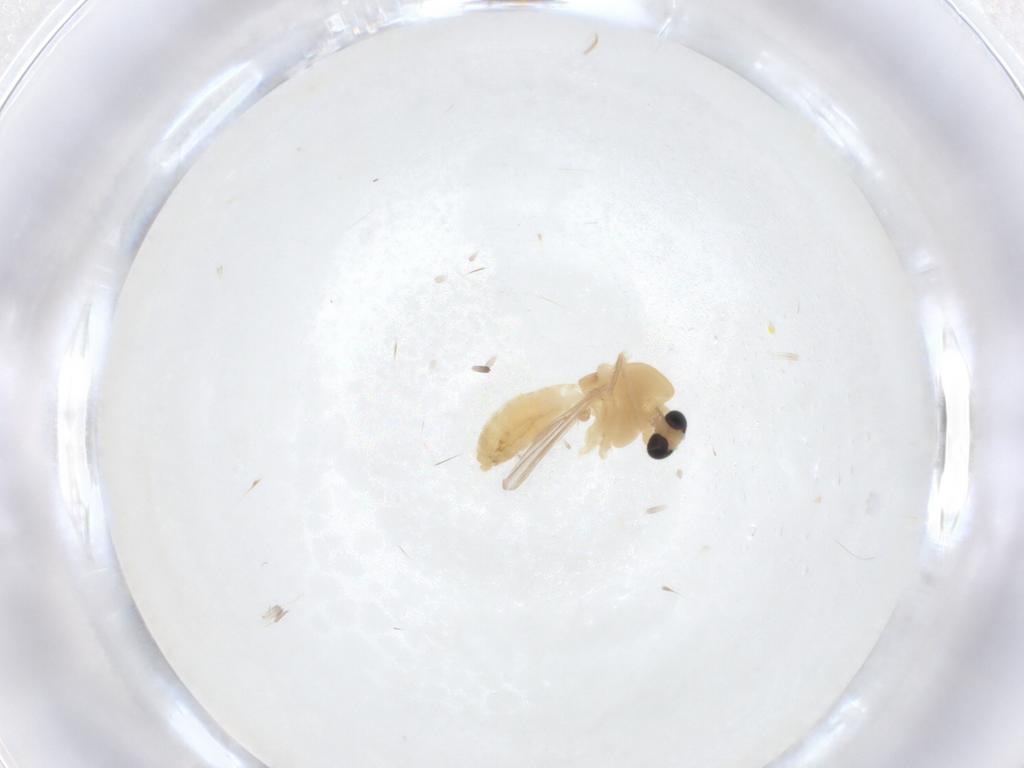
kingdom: Animalia
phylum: Arthropoda
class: Insecta
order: Diptera
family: Chironomidae
